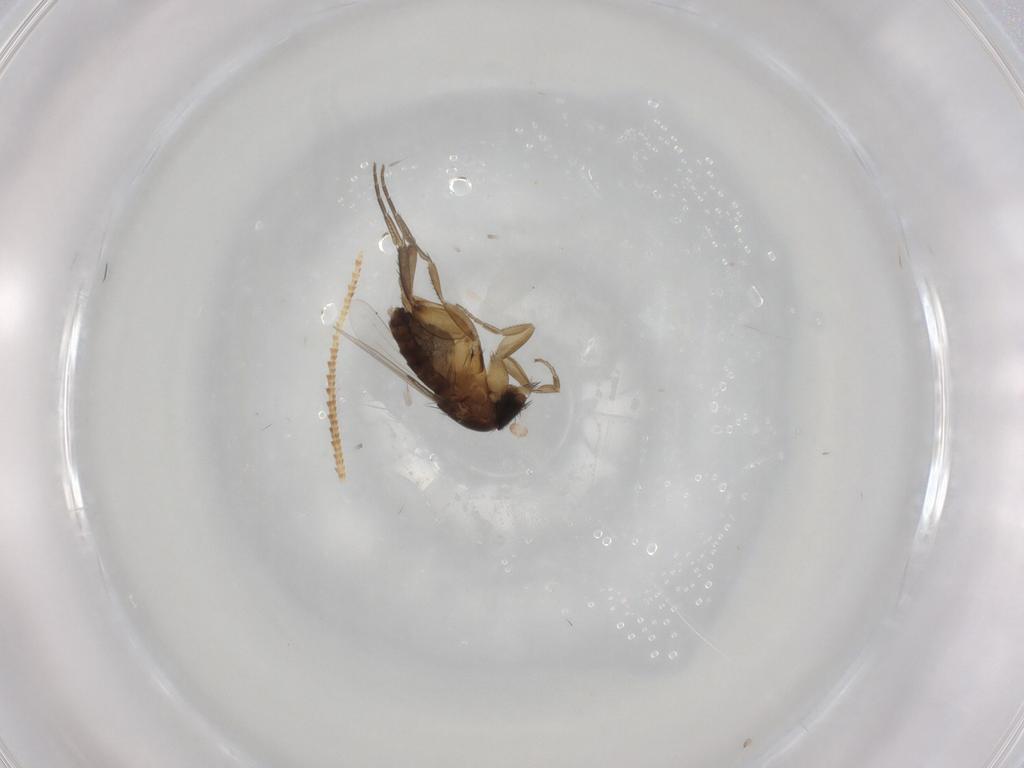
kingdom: Animalia
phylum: Arthropoda
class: Insecta
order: Diptera
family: Phoridae
